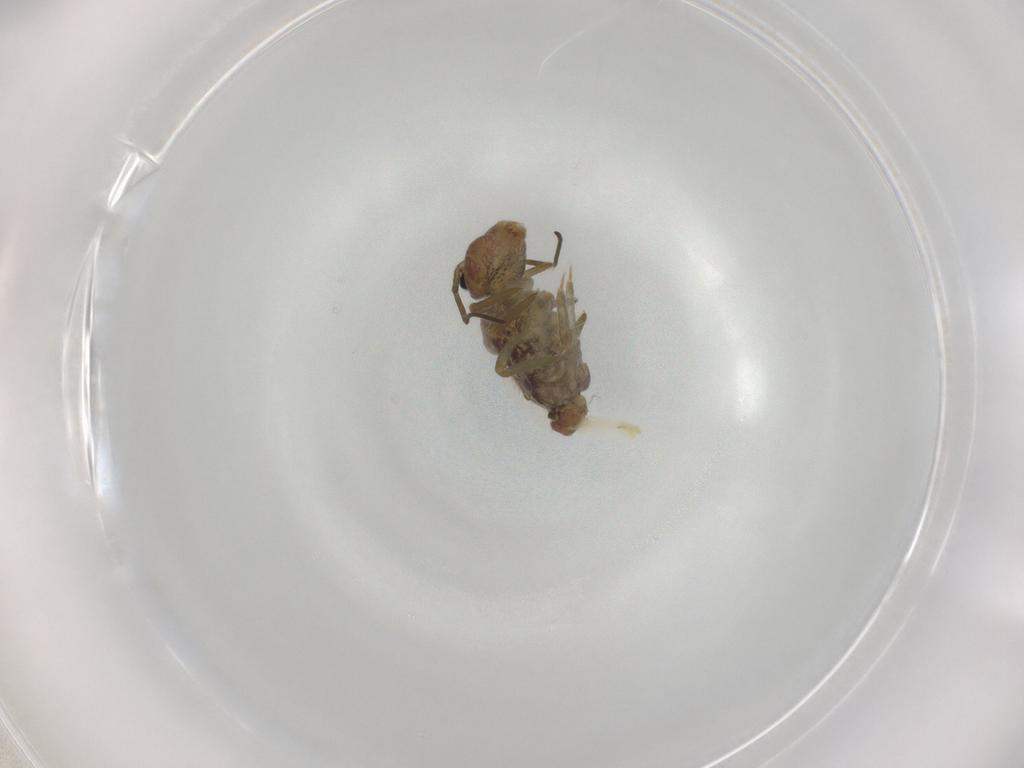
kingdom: Animalia
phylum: Arthropoda
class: Collembola
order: Symphypleona
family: Sminthuridae
